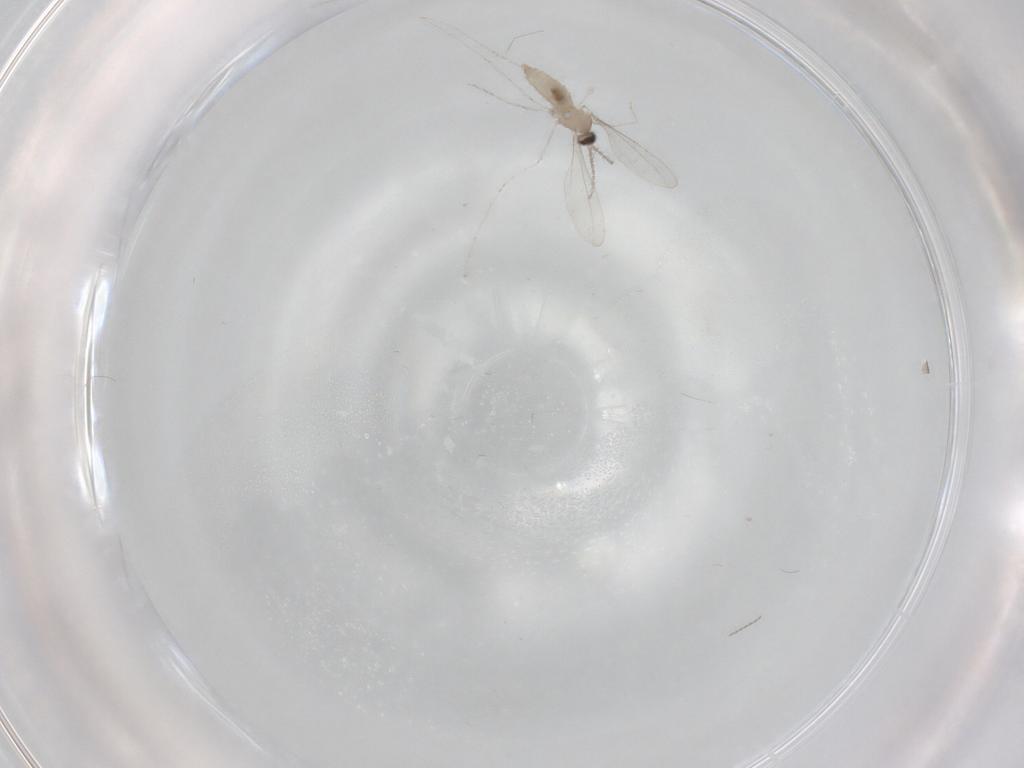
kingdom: Animalia
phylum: Arthropoda
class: Insecta
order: Diptera
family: Cecidomyiidae
